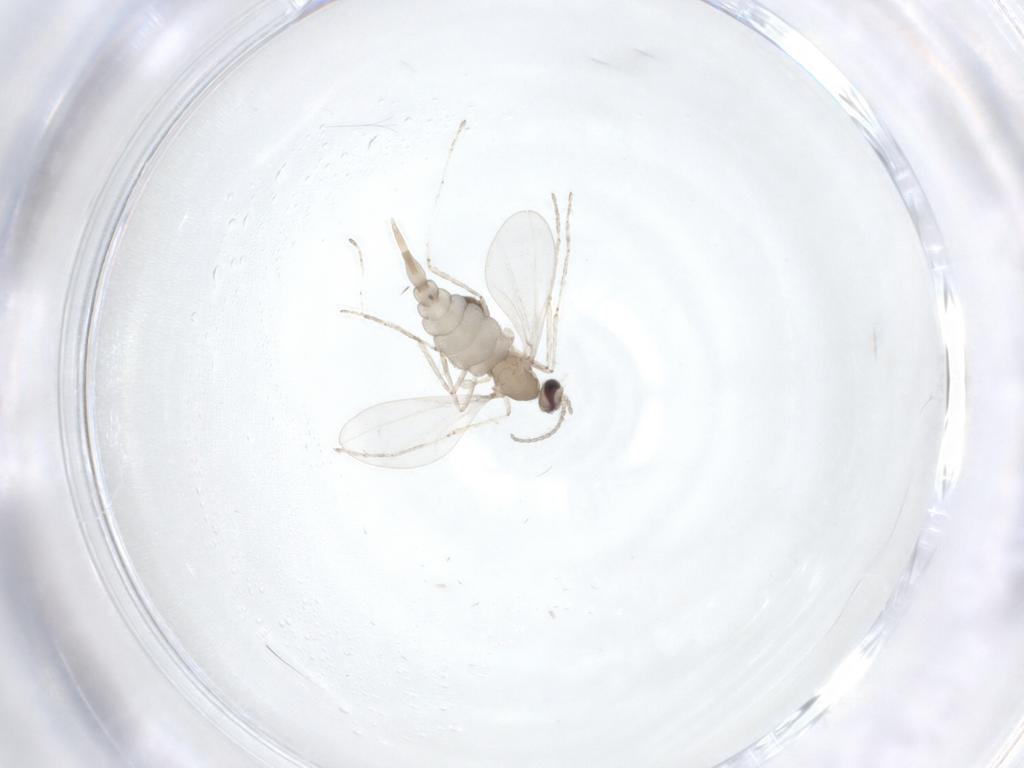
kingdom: Animalia
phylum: Arthropoda
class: Insecta
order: Diptera
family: Cecidomyiidae
